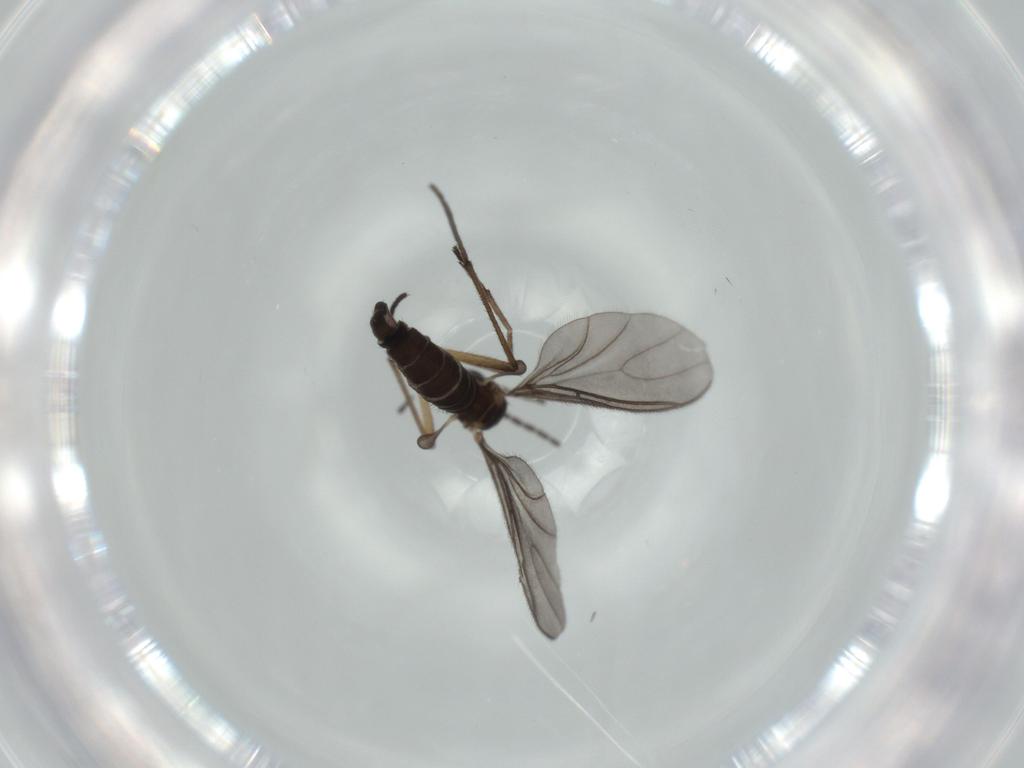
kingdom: Animalia
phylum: Arthropoda
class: Insecta
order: Diptera
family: Sciaridae
